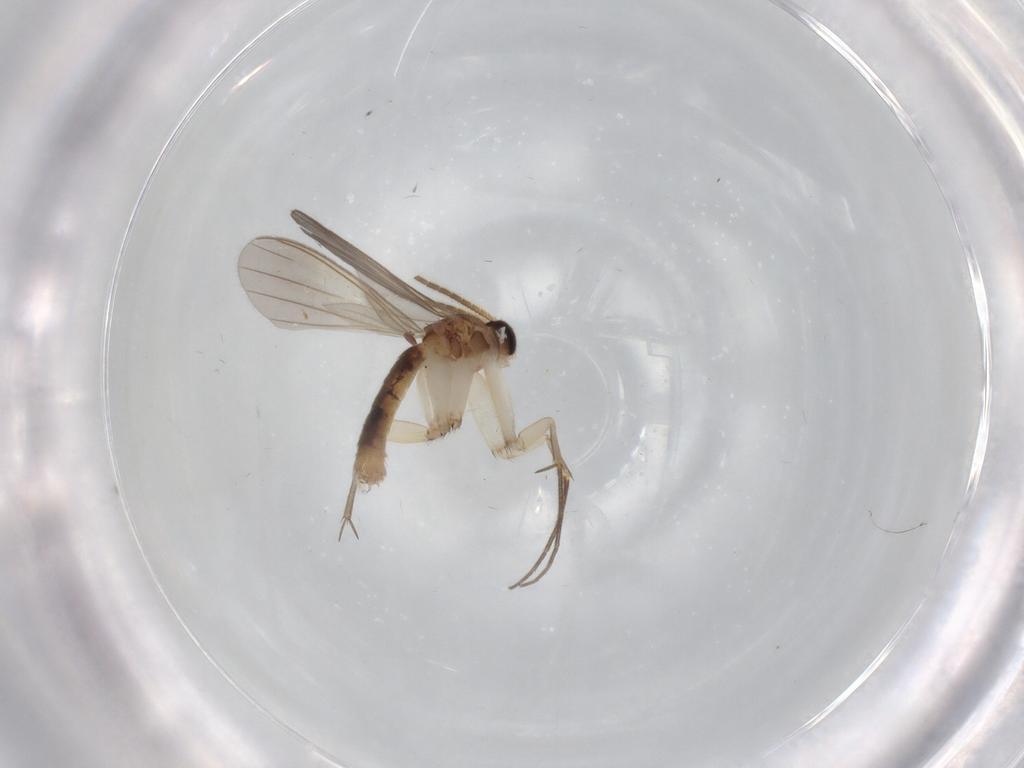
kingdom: Animalia
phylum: Arthropoda
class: Insecta
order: Diptera
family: Mycetophilidae
